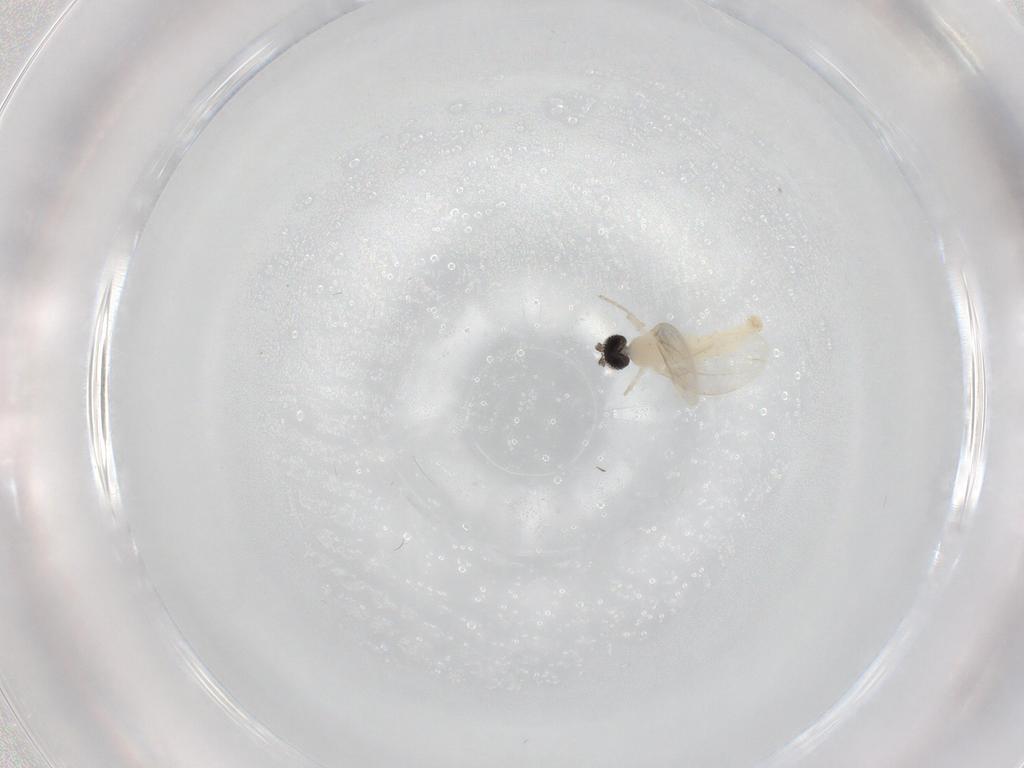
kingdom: Animalia
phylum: Arthropoda
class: Insecta
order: Diptera
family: Cecidomyiidae
